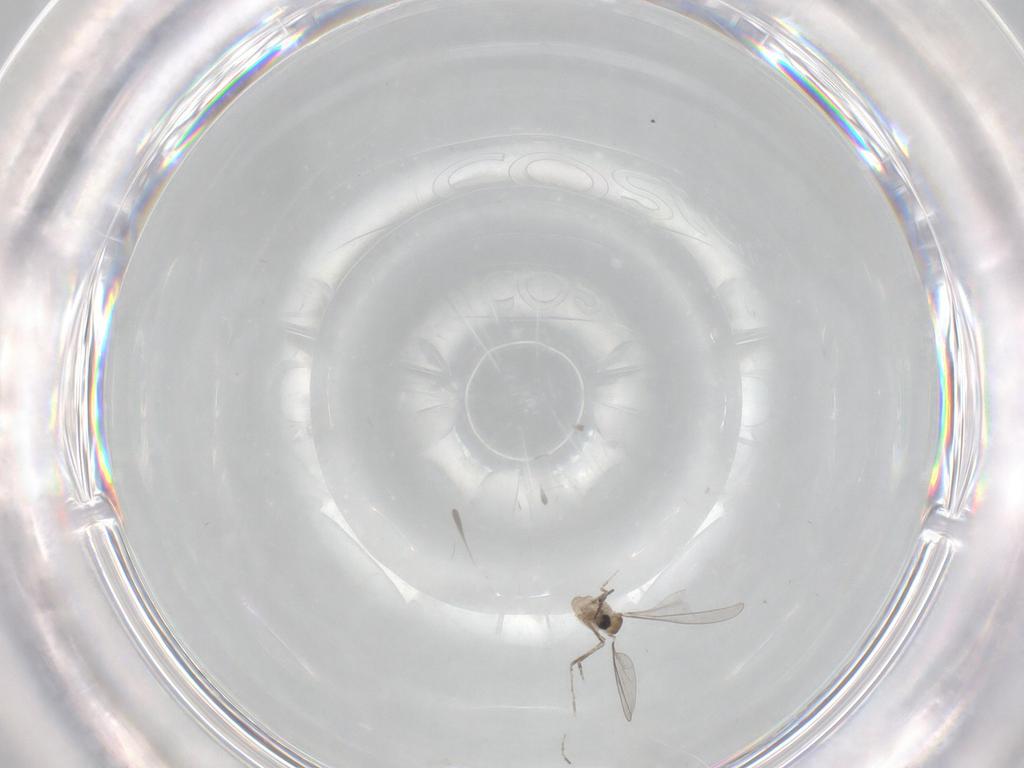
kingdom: Animalia
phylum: Arthropoda
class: Insecta
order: Diptera
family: Cecidomyiidae
